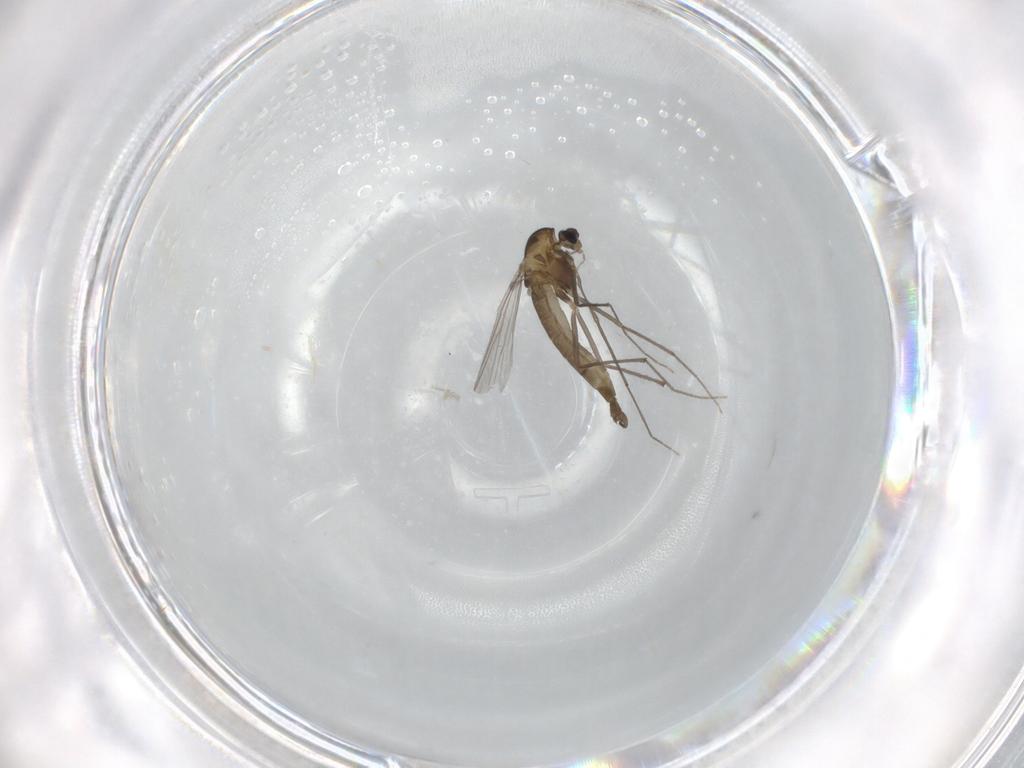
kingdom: Animalia
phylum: Arthropoda
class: Insecta
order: Diptera
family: Chironomidae
